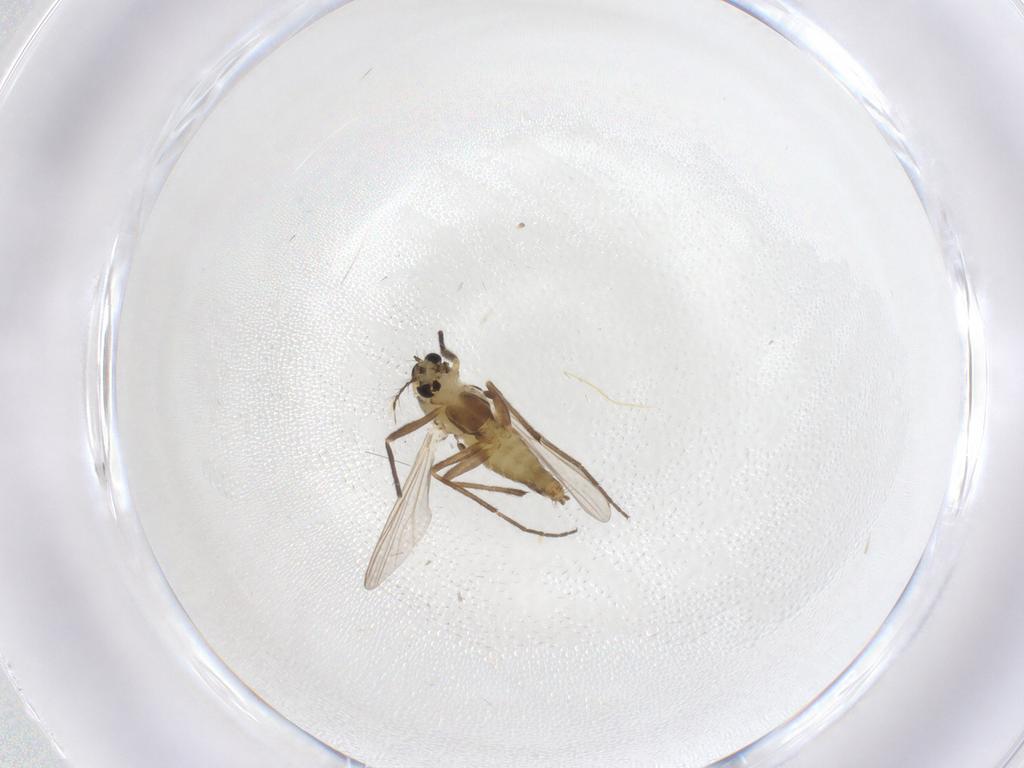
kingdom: Animalia
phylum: Arthropoda
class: Insecta
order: Diptera
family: Chironomidae
